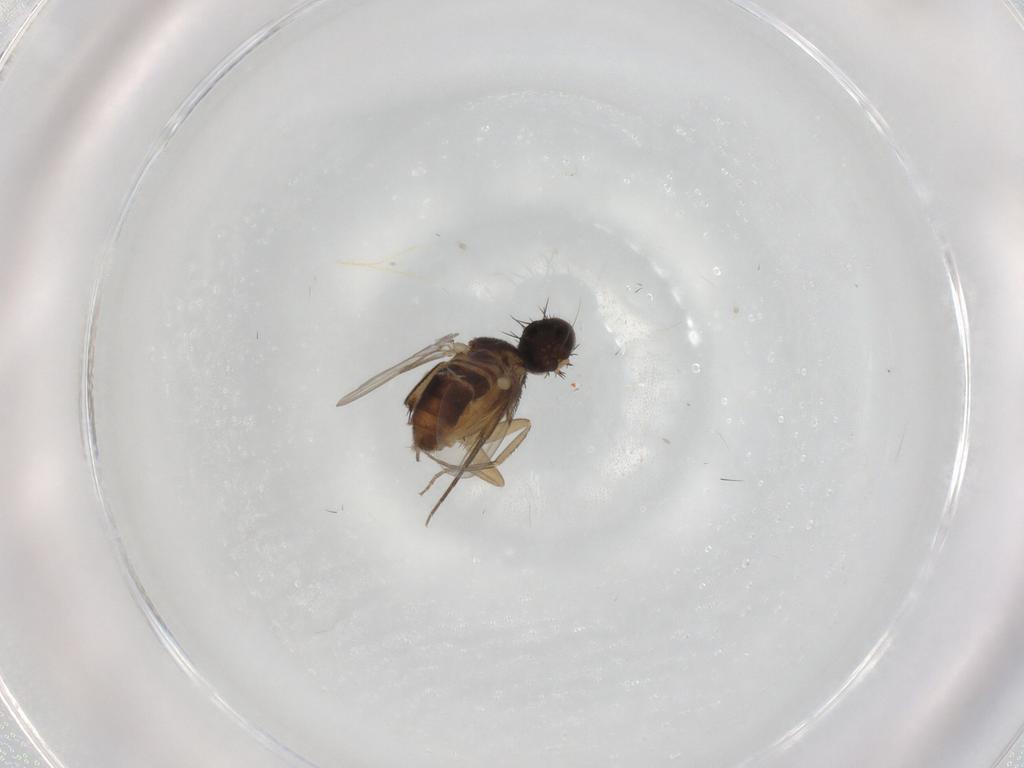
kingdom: Animalia
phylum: Arthropoda
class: Insecta
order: Diptera
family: Phoridae
